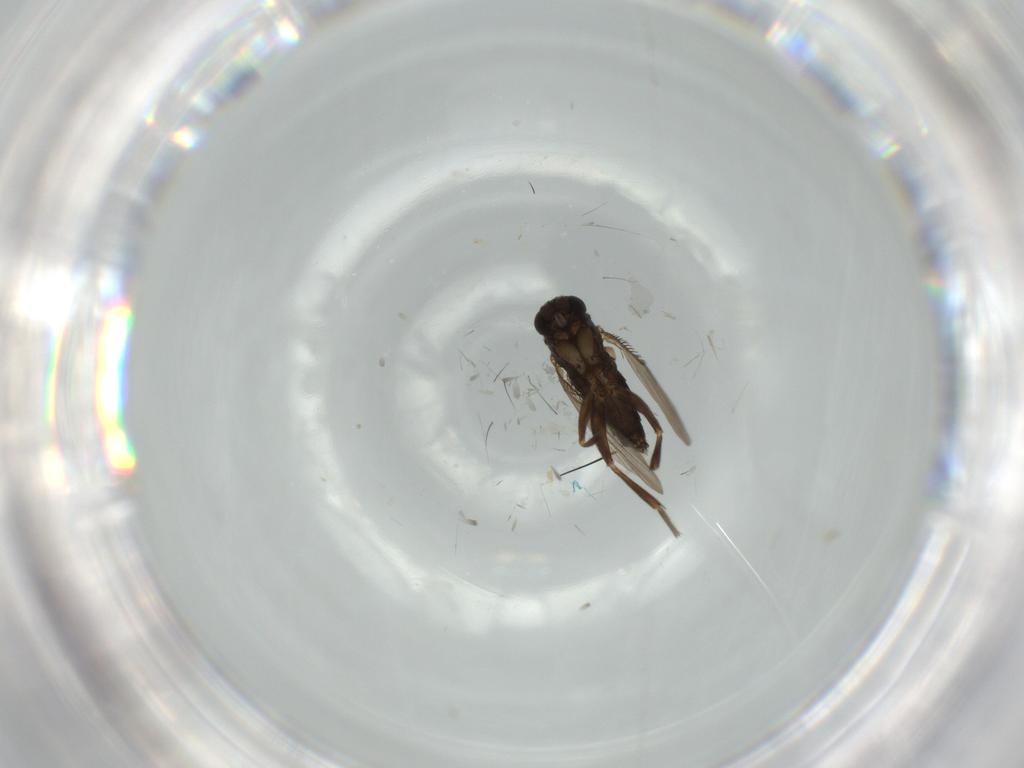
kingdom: Animalia
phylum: Arthropoda
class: Insecta
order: Diptera
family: Phoridae
